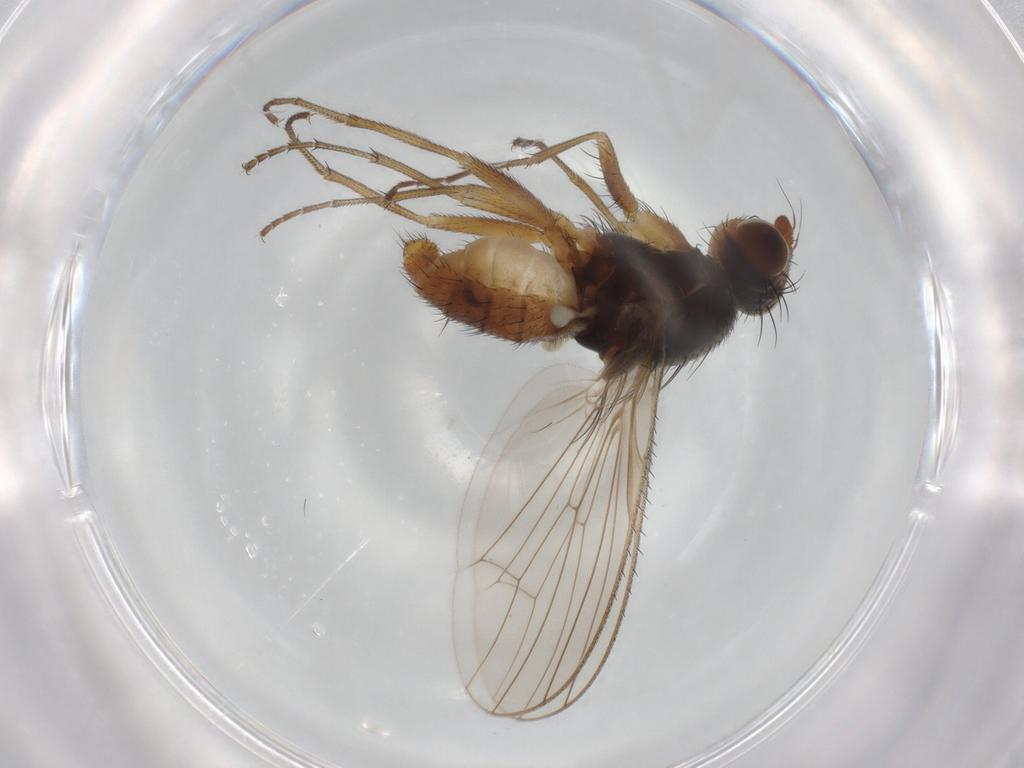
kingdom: Animalia
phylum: Arthropoda
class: Insecta
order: Diptera
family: Heleomyzidae
